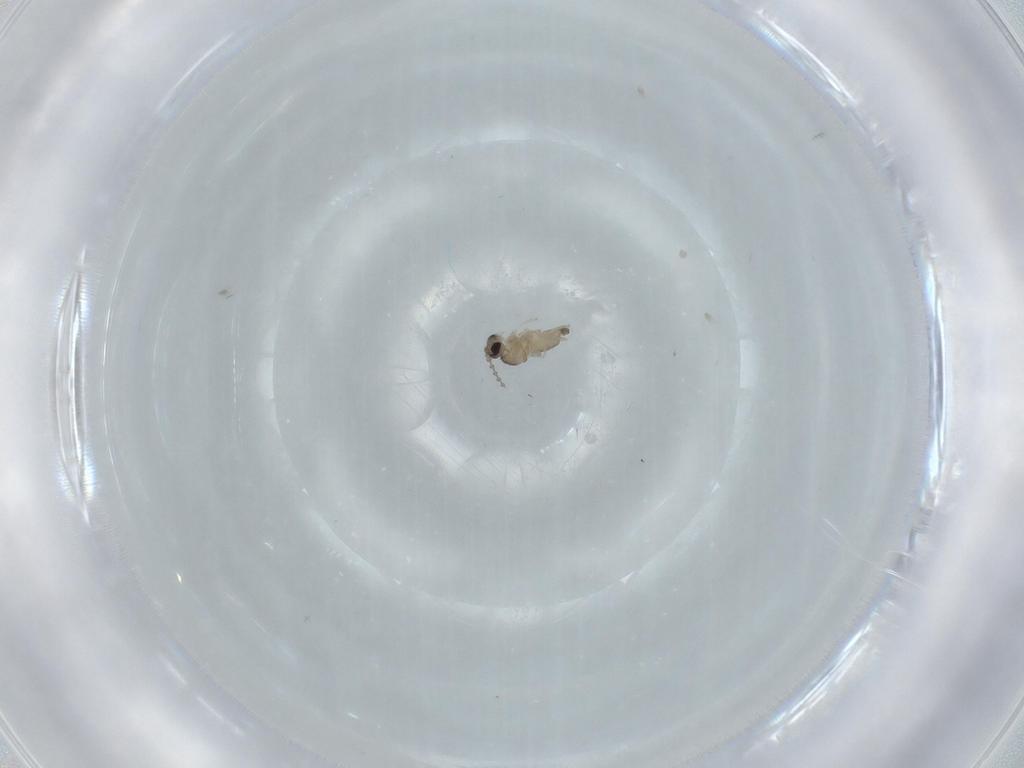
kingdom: Animalia
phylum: Arthropoda
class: Insecta
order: Diptera
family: Cecidomyiidae
